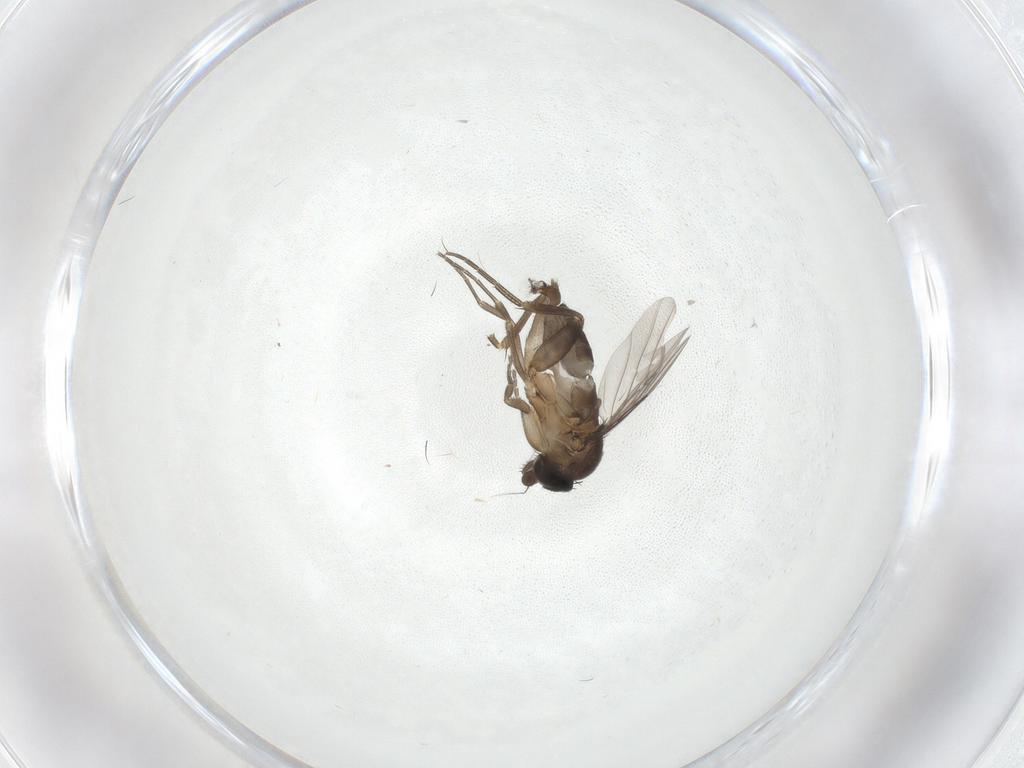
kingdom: Animalia
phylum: Arthropoda
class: Insecta
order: Diptera
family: Phoridae
